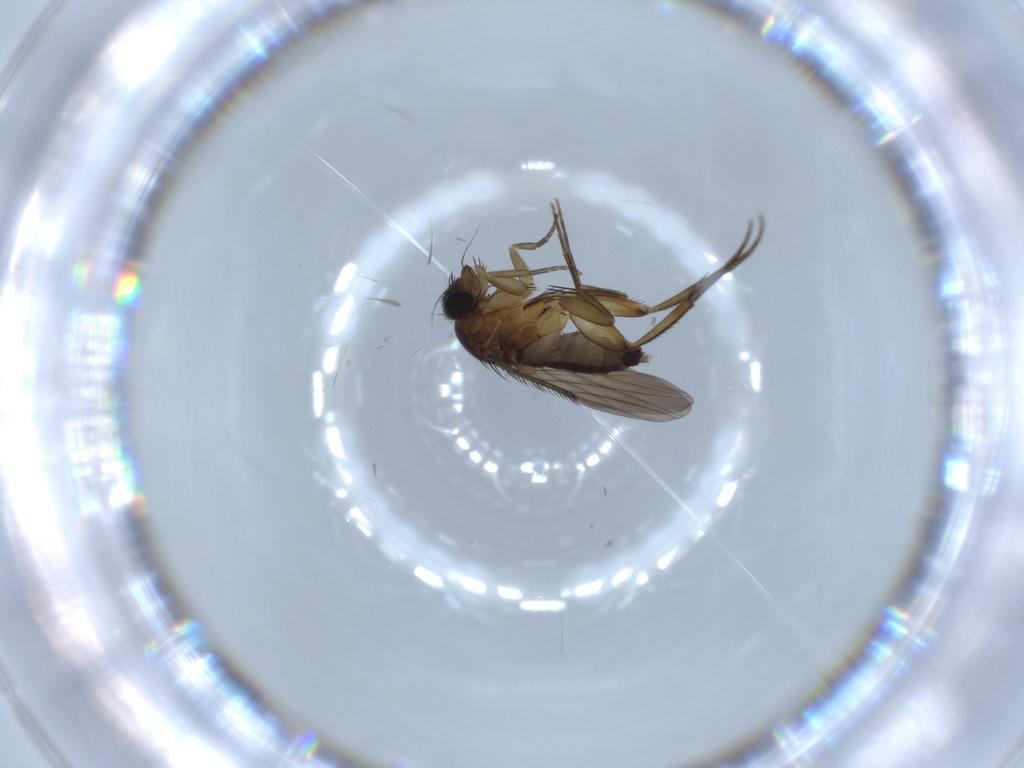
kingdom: Animalia
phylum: Arthropoda
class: Insecta
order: Diptera
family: Phoridae
